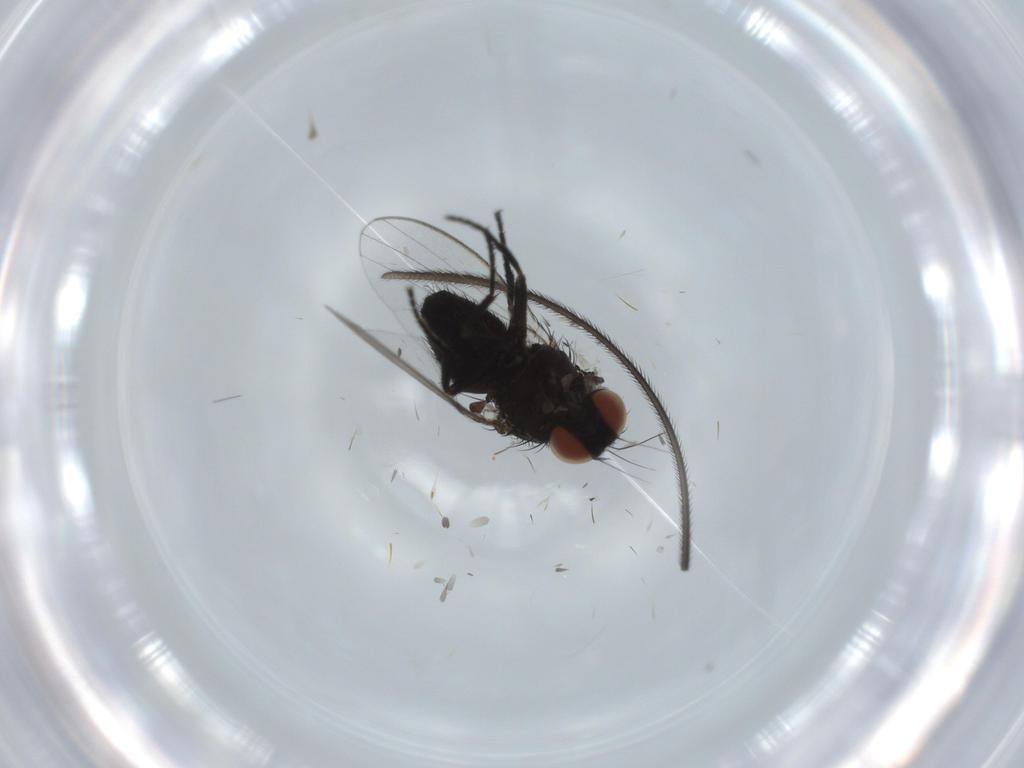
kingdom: Animalia
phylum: Arthropoda
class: Insecta
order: Diptera
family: Milichiidae
